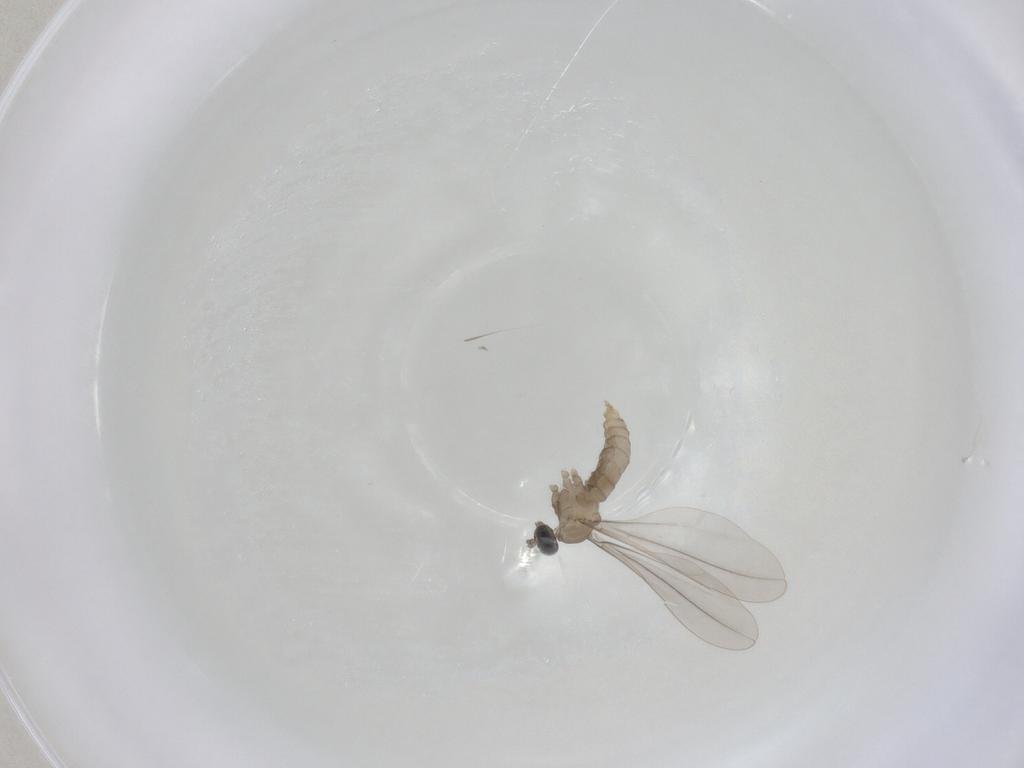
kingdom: Animalia
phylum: Arthropoda
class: Insecta
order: Diptera
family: Cecidomyiidae
